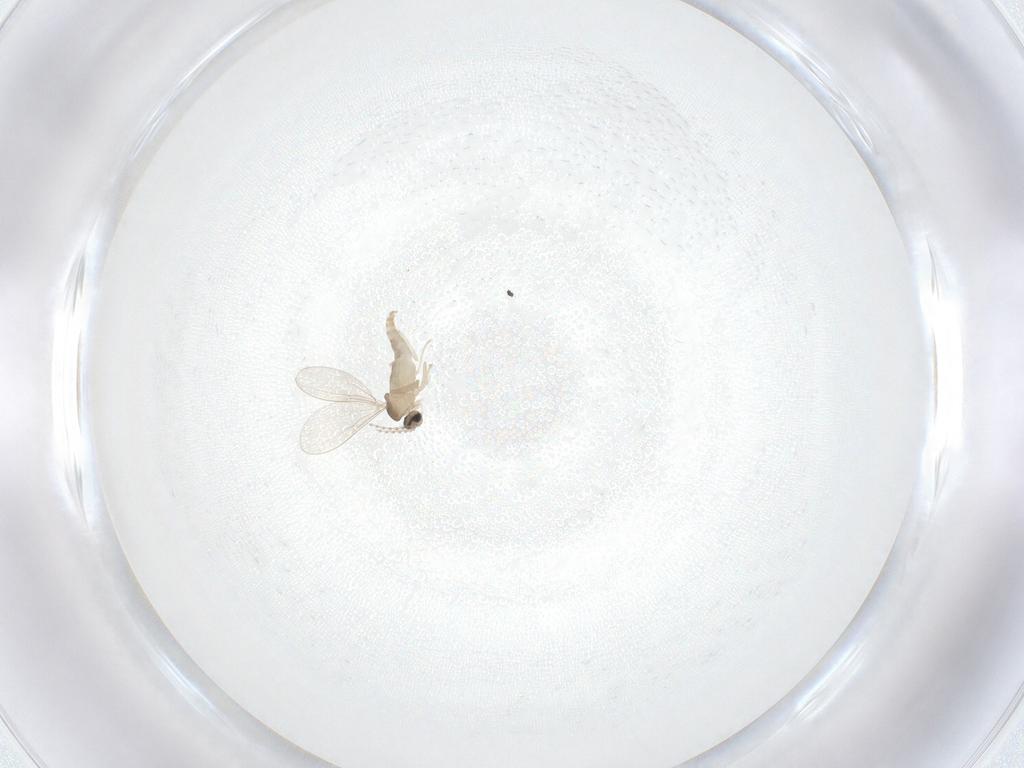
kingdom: Animalia
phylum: Arthropoda
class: Insecta
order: Diptera
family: Cecidomyiidae
